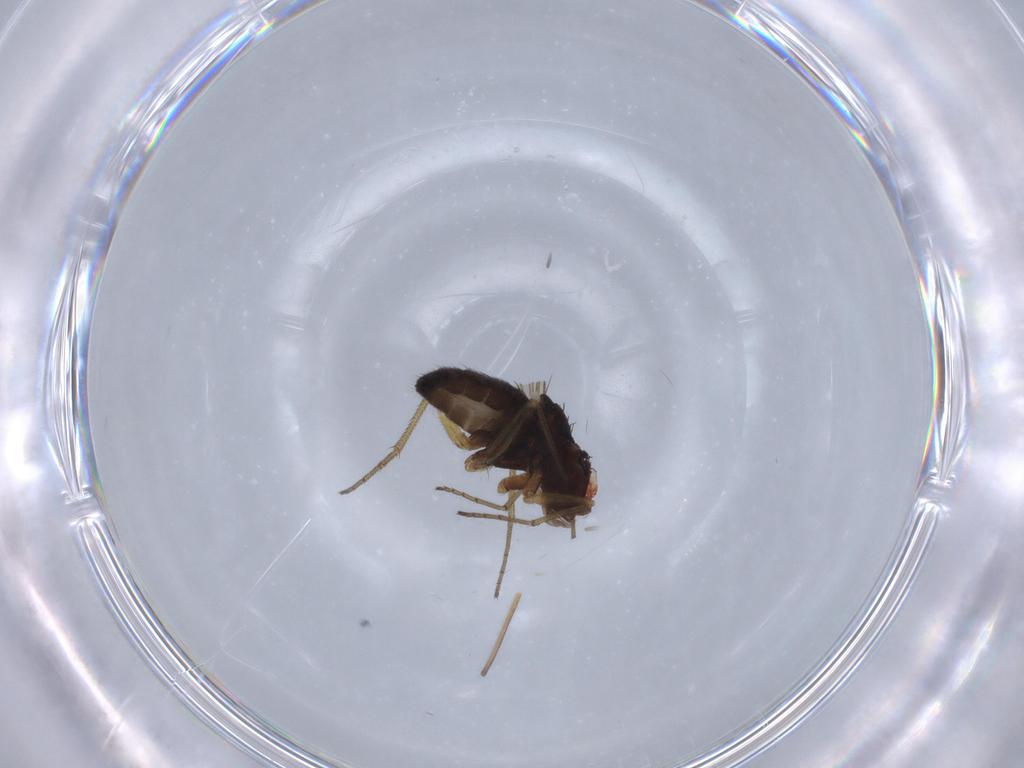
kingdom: Animalia
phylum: Arthropoda
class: Insecta
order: Diptera
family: Dolichopodidae
